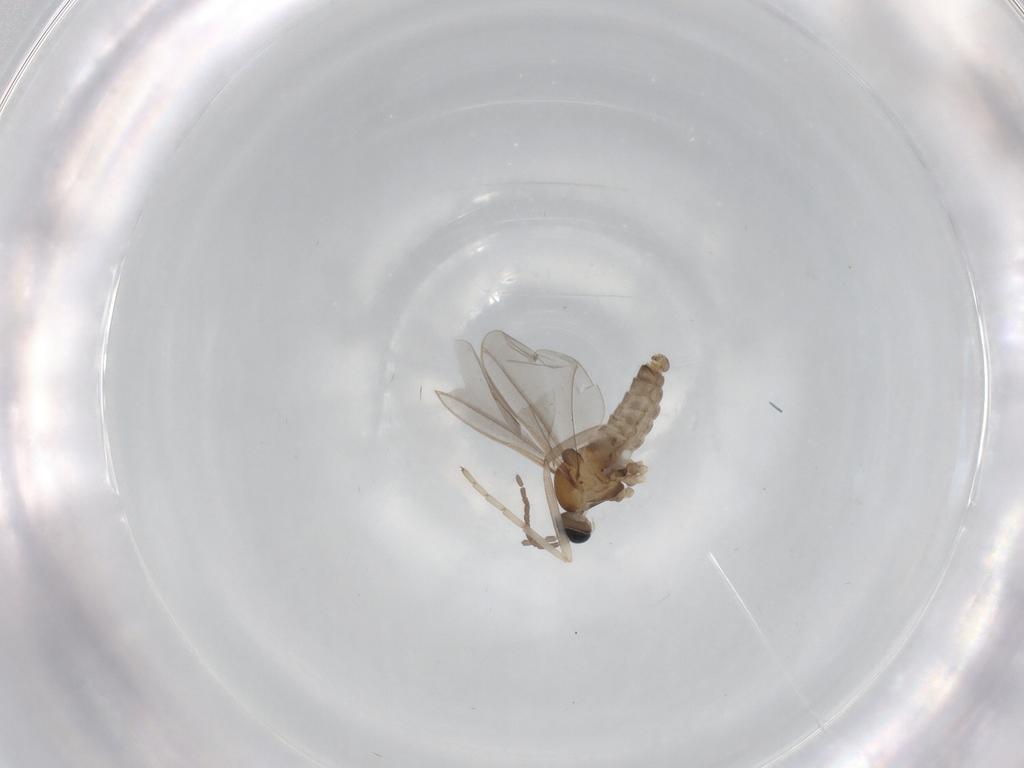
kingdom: Animalia
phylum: Arthropoda
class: Insecta
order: Diptera
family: Cecidomyiidae
